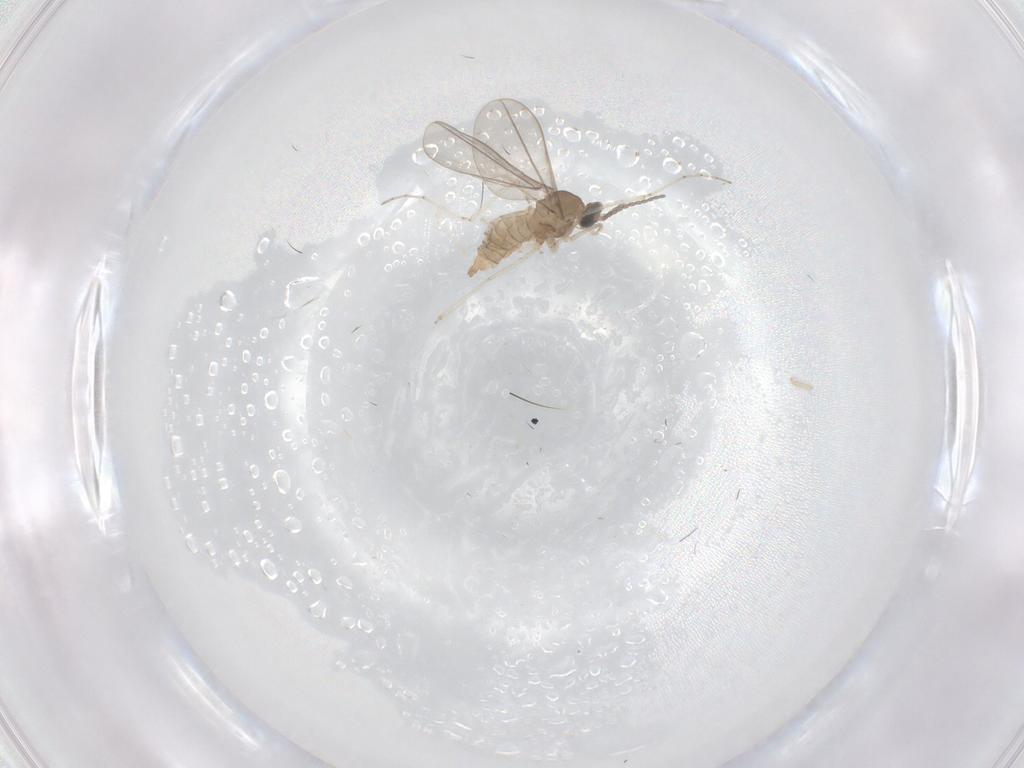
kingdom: Animalia
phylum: Arthropoda
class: Insecta
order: Diptera
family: Cecidomyiidae
